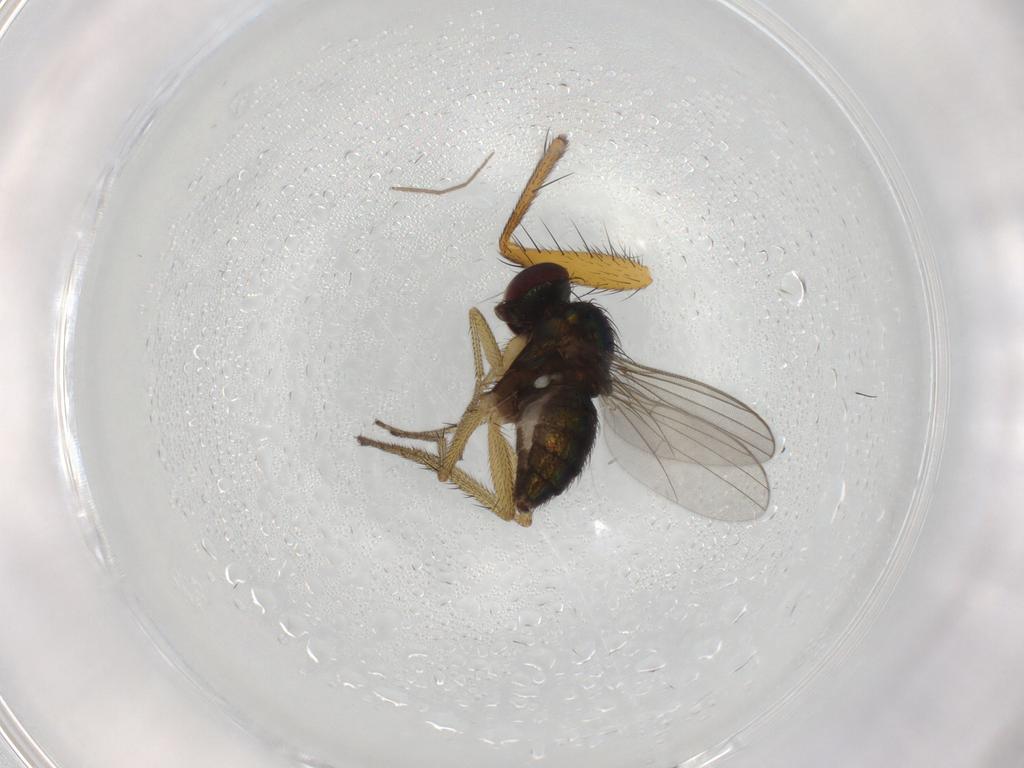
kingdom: Animalia
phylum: Arthropoda
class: Insecta
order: Diptera
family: Muscidae
